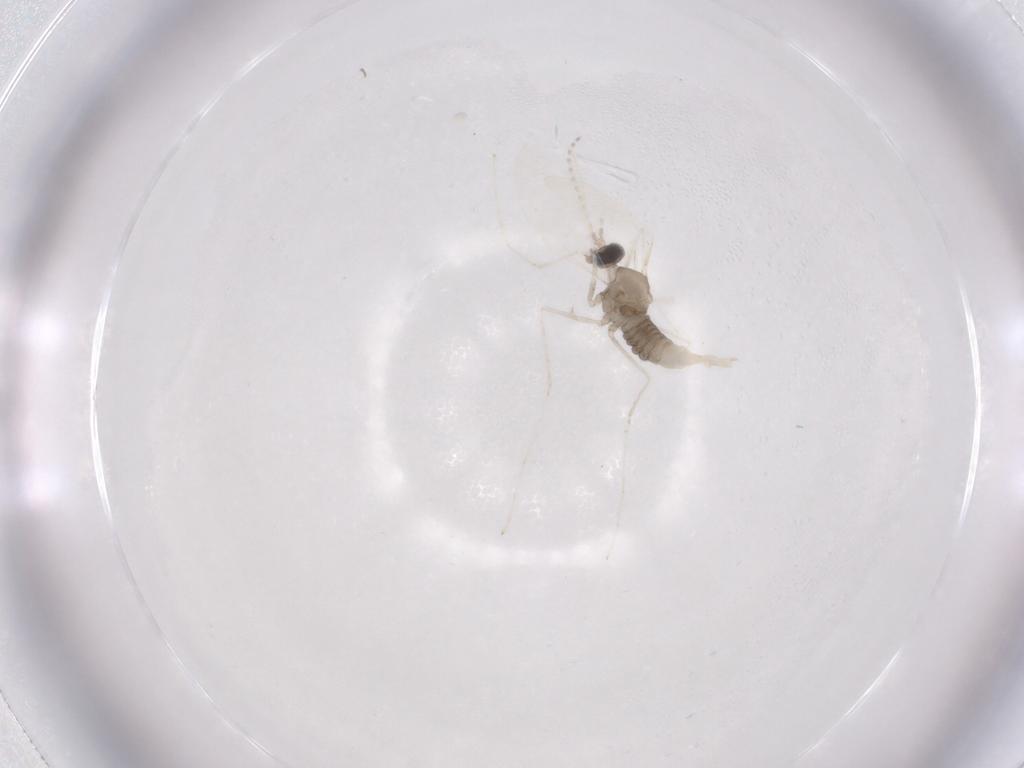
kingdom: Animalia
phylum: Arthropoda
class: Insecta
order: Diptera
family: Cecidomyiidae
